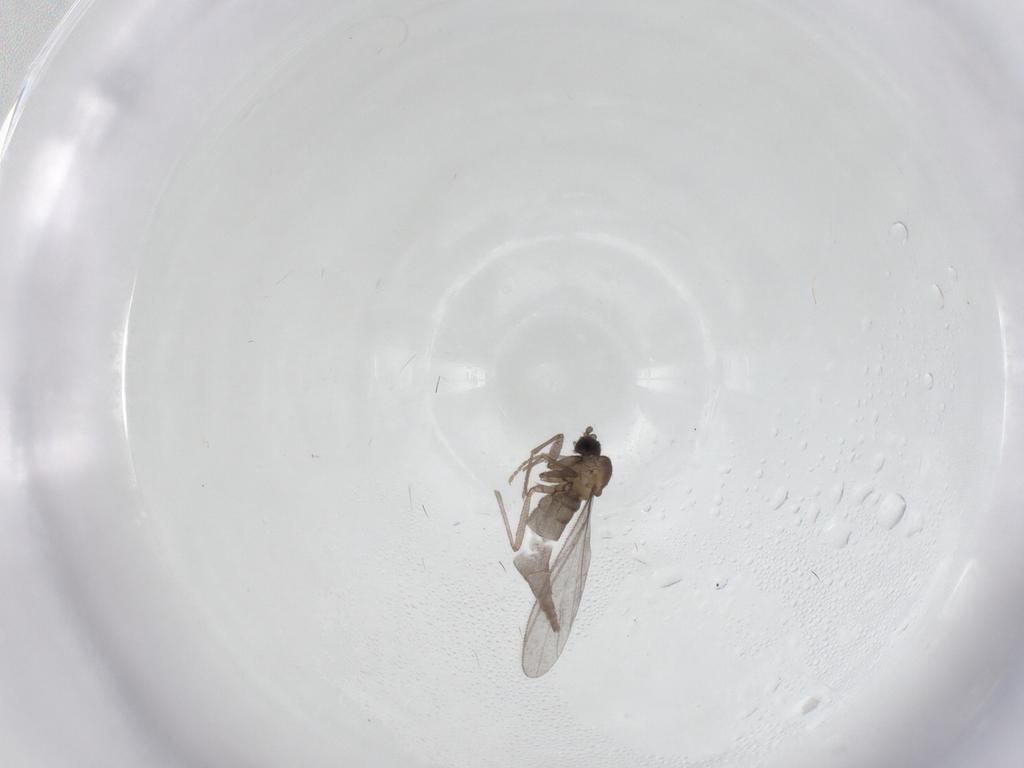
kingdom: Animalia
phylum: Arthropoda
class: Insecta
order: Diptera
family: Sciaridae
